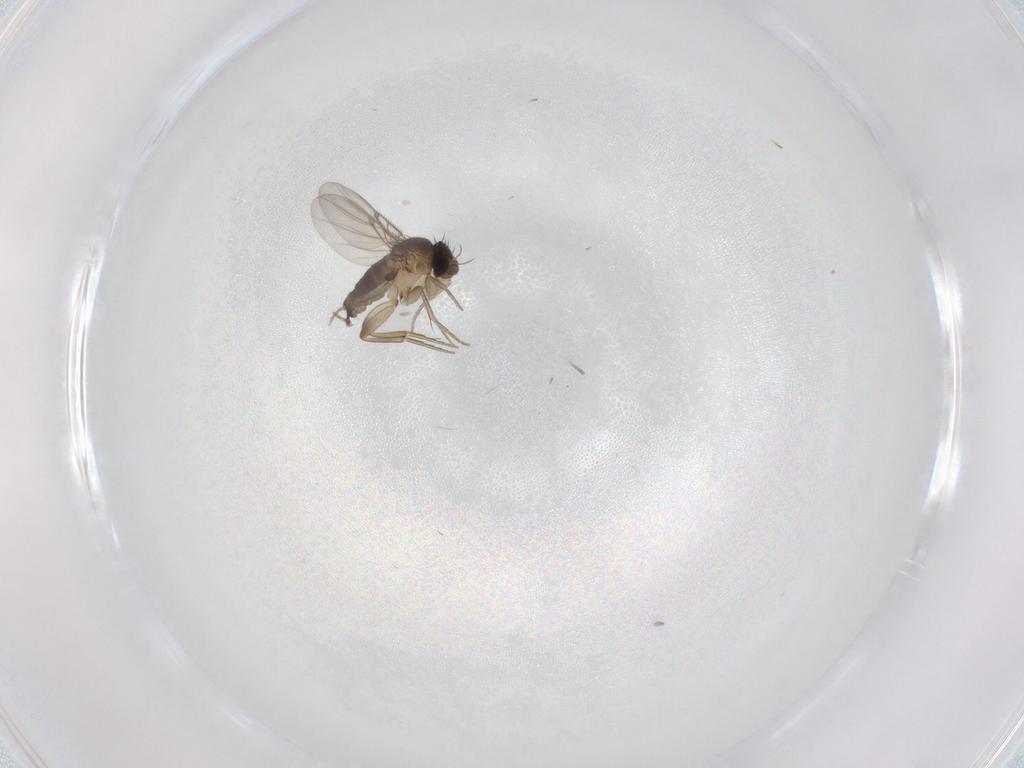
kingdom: Animalia
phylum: Arthropoda
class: Insecta
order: Diptera
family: Phoridae
